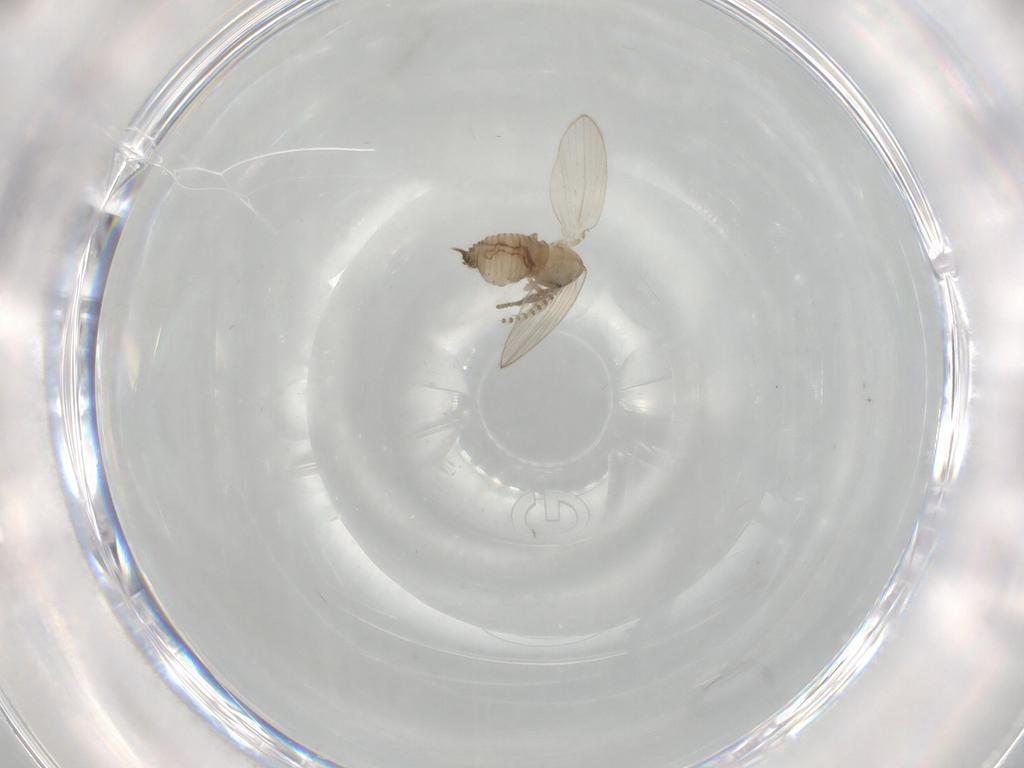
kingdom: Animalia
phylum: Arthropoda
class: Insecta
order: Diptera
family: Psychodidae
